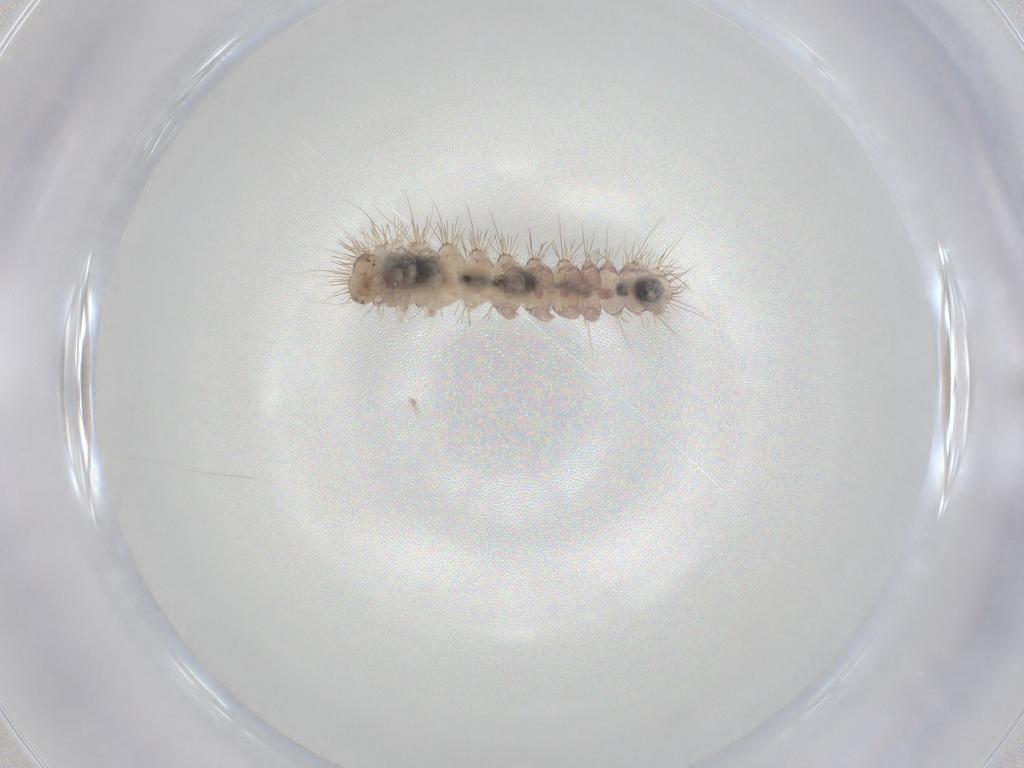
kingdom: Animalia
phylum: Arthropoda
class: Insecta
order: Lepidoptera
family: Erebidae
